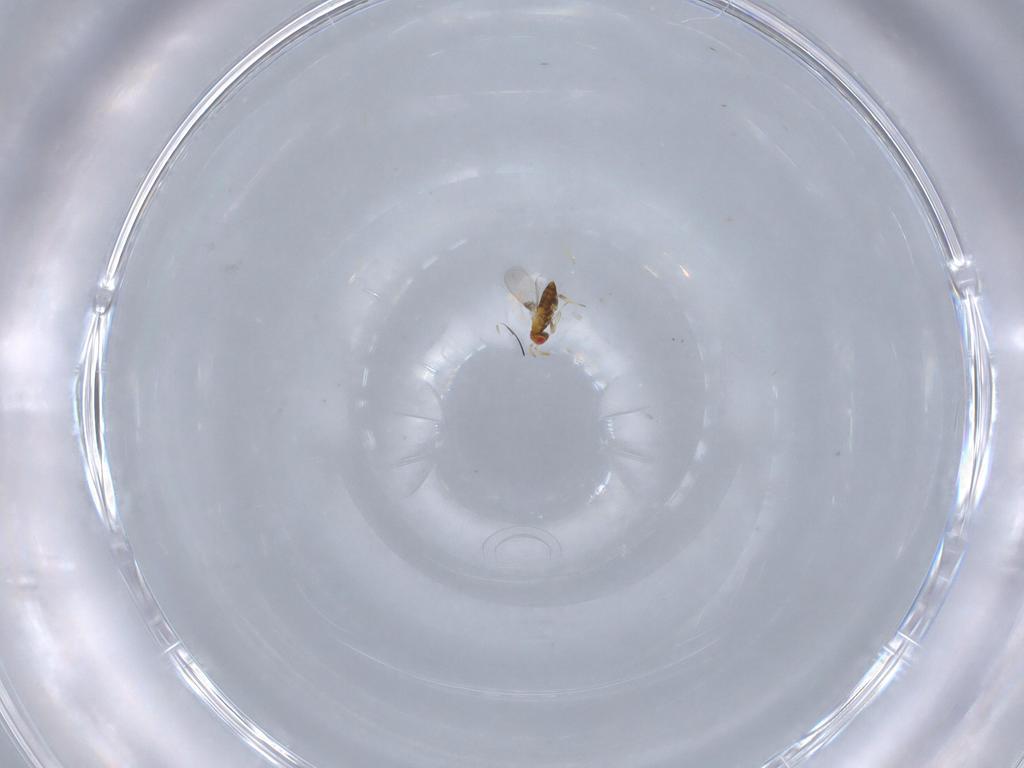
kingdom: Animalia
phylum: Arthropoda
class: Insecta
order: Hymenoptera
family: Trichogrammatidae
